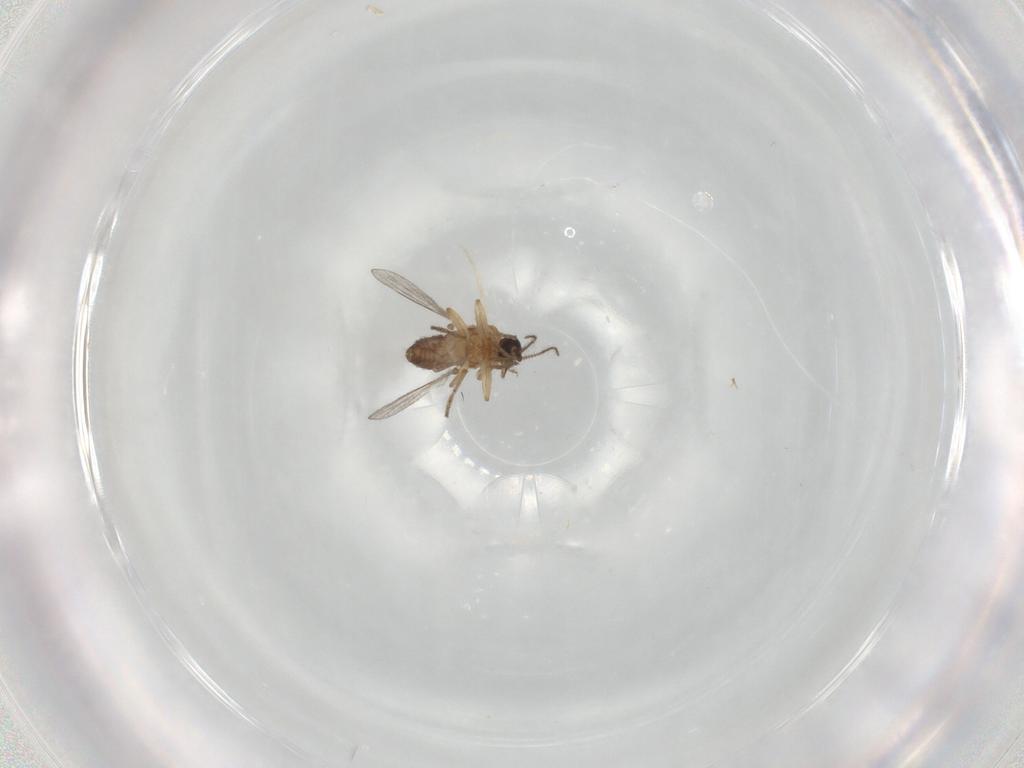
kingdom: Animalia
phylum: Arthropoda
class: Insecta
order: Diptera
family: Ceratopogonidae
